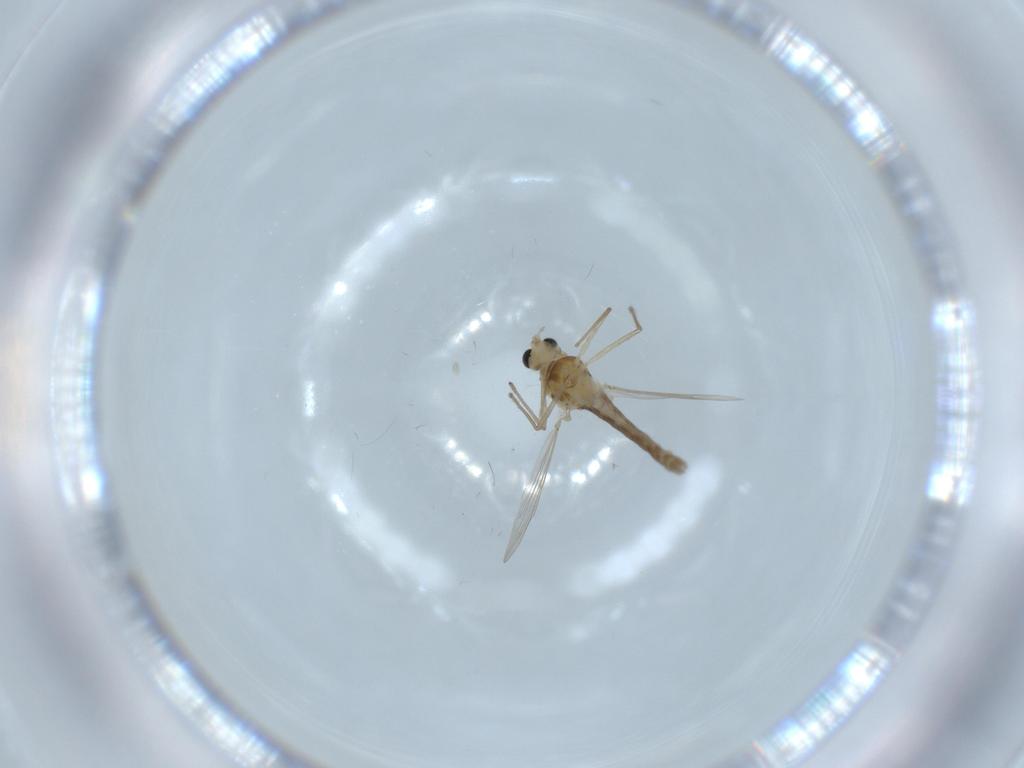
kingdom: Animalia
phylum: Arthropoda
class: Insecta
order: Diptera
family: Chironomidae
